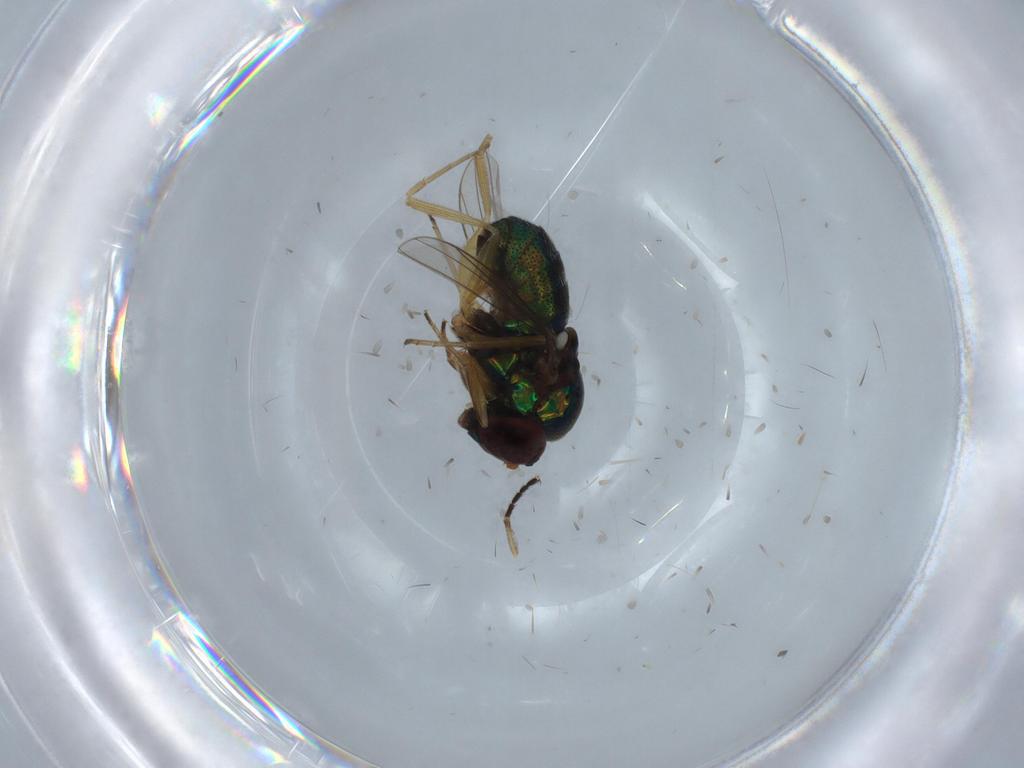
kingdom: Animalia
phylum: Arthropoda
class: Insecta
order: Diptera
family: Dolichopodidae
